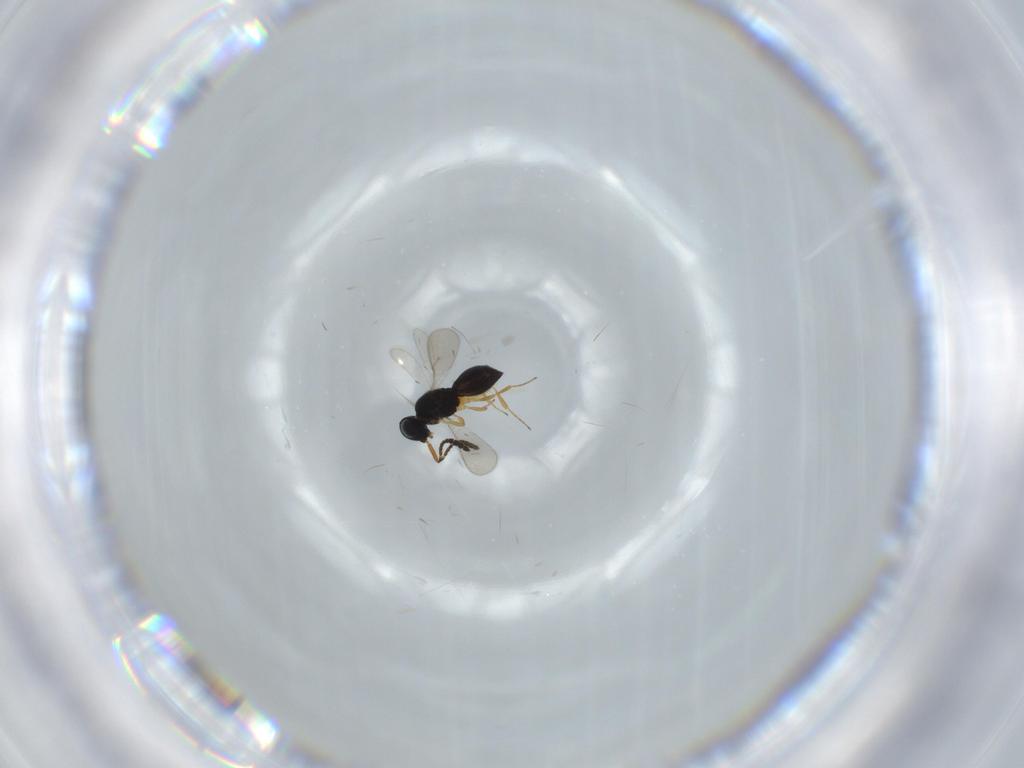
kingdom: Animalia
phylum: Arthropoda
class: Insecta
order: Hymenoptera
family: Scelionidae
